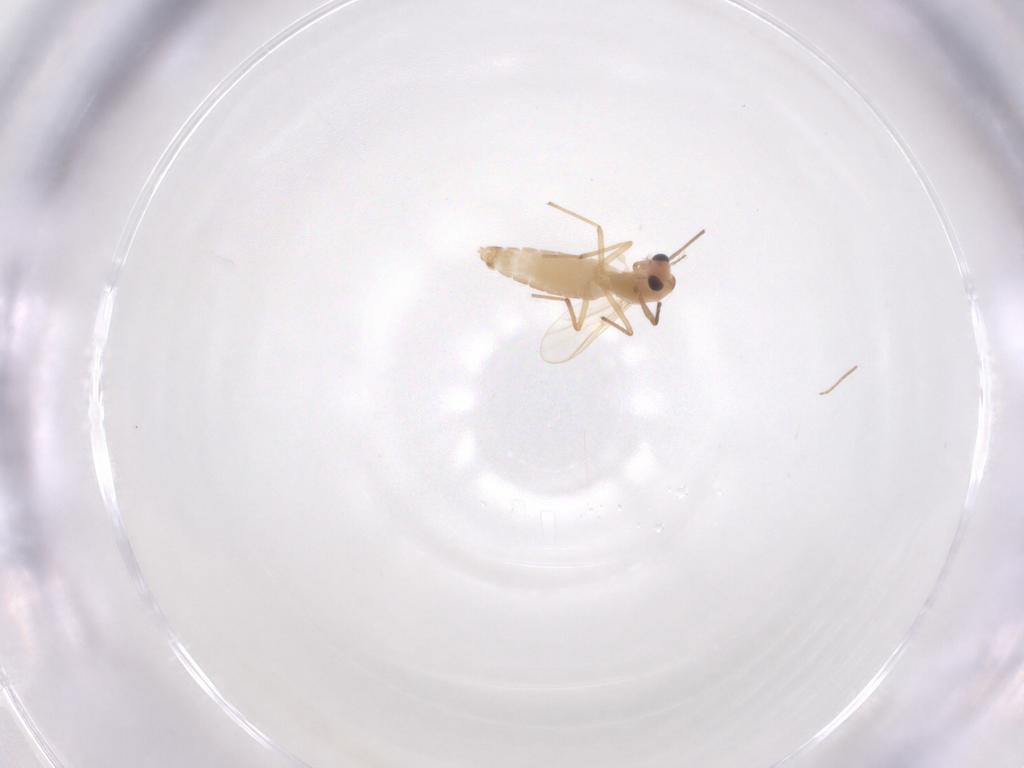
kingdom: Animalia
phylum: Arthropoda
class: Insecta
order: Diptera
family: Chironomidae
